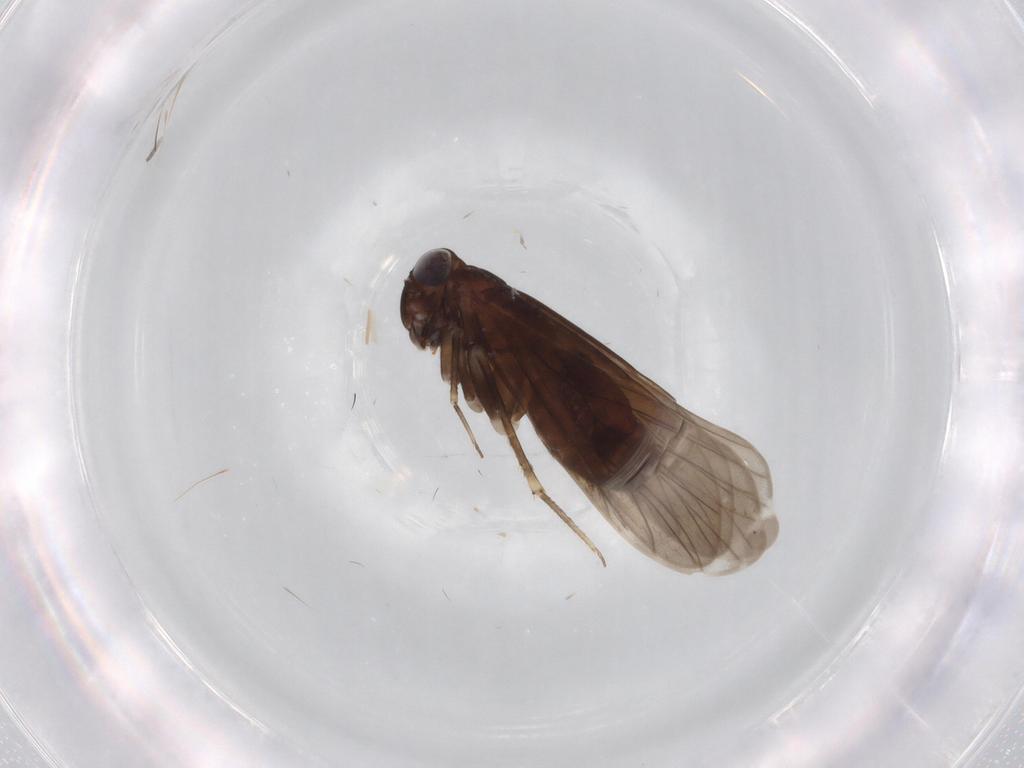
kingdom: Animalia
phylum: Arthropoda
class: Insecta
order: Psocodea
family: Amphientomidae
